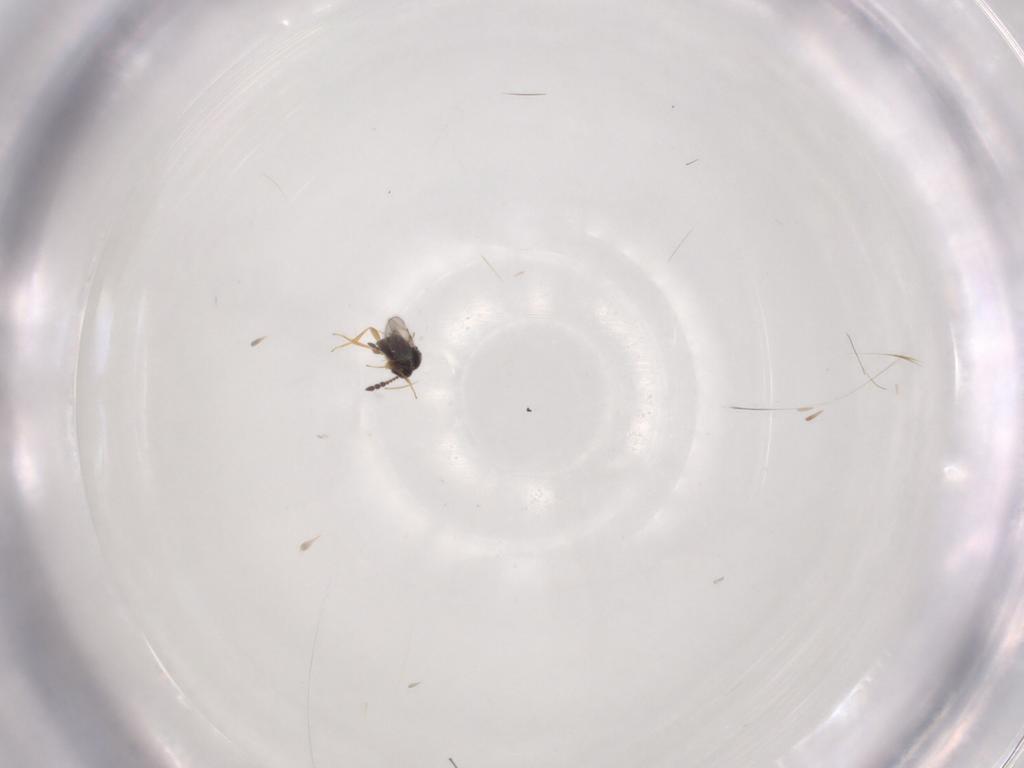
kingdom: Animalia
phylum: Arthropoda
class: Insecta
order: Hymenoptera
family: Ceraphronidae
